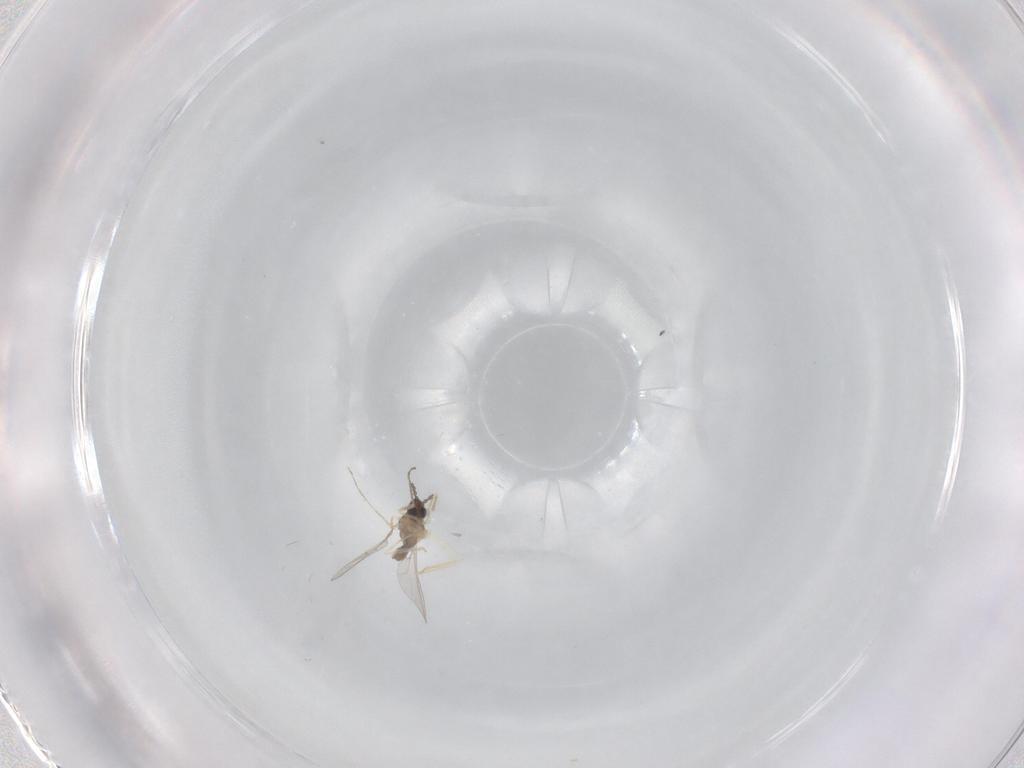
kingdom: Animalia
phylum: Arthropoda
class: Insecta
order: Diptera
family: Cecidomyiidae
